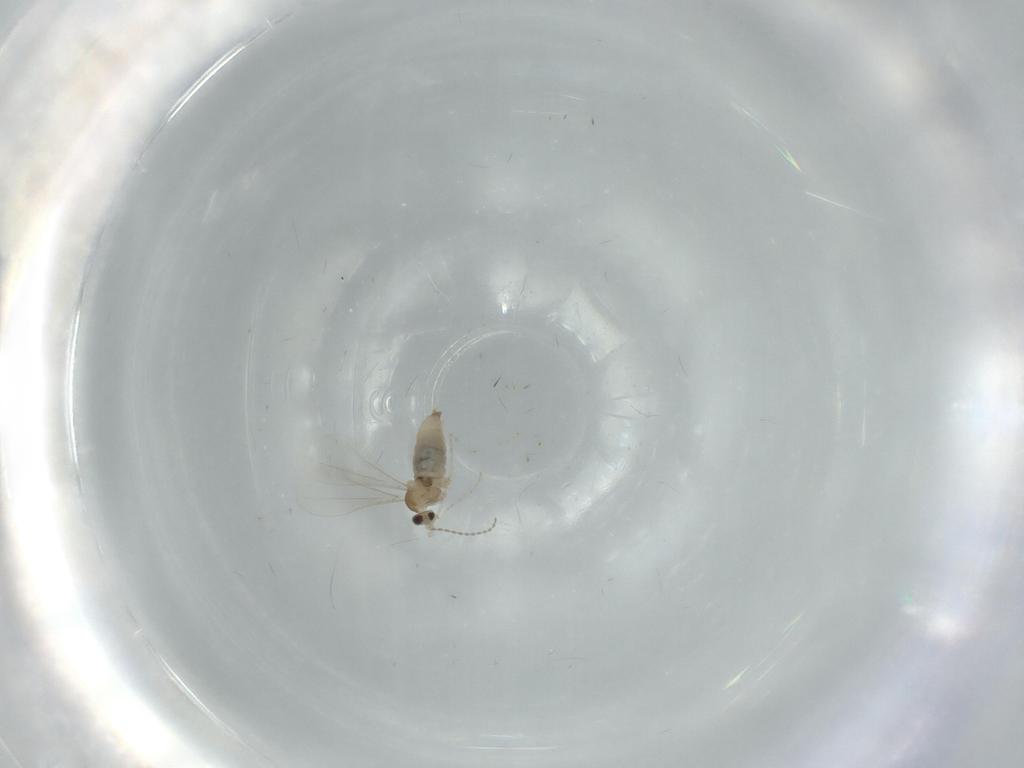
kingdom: Animalia
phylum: Arthropoda
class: Insecta
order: Diptera
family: Cecidomyiidae
